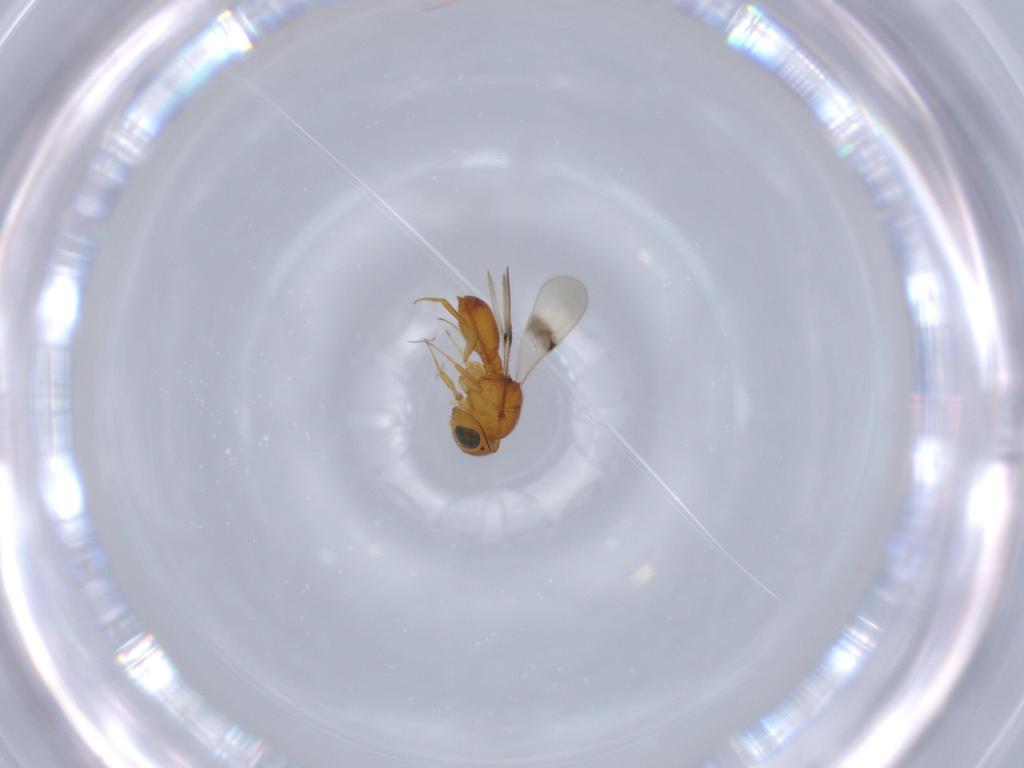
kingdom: Animalia
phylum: Arthropoda
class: Insecta
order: Hymenoptera
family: Scelionidae
